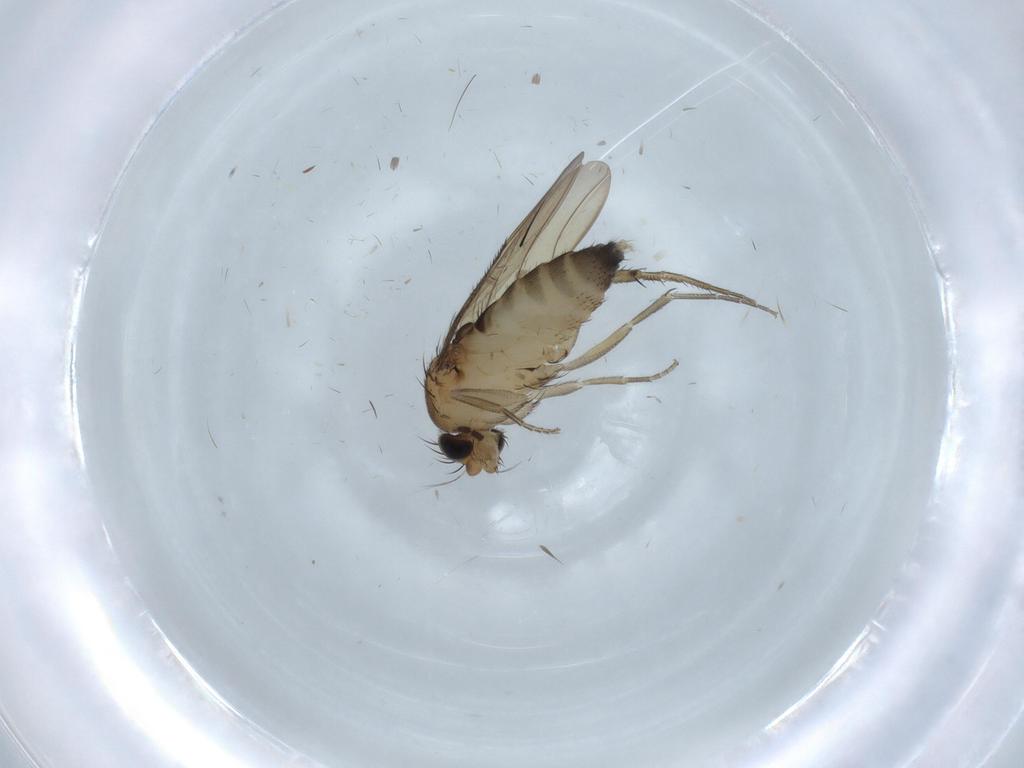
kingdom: Animalia
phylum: Arthropoda
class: Insecta
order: Diptera
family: Phoridae
